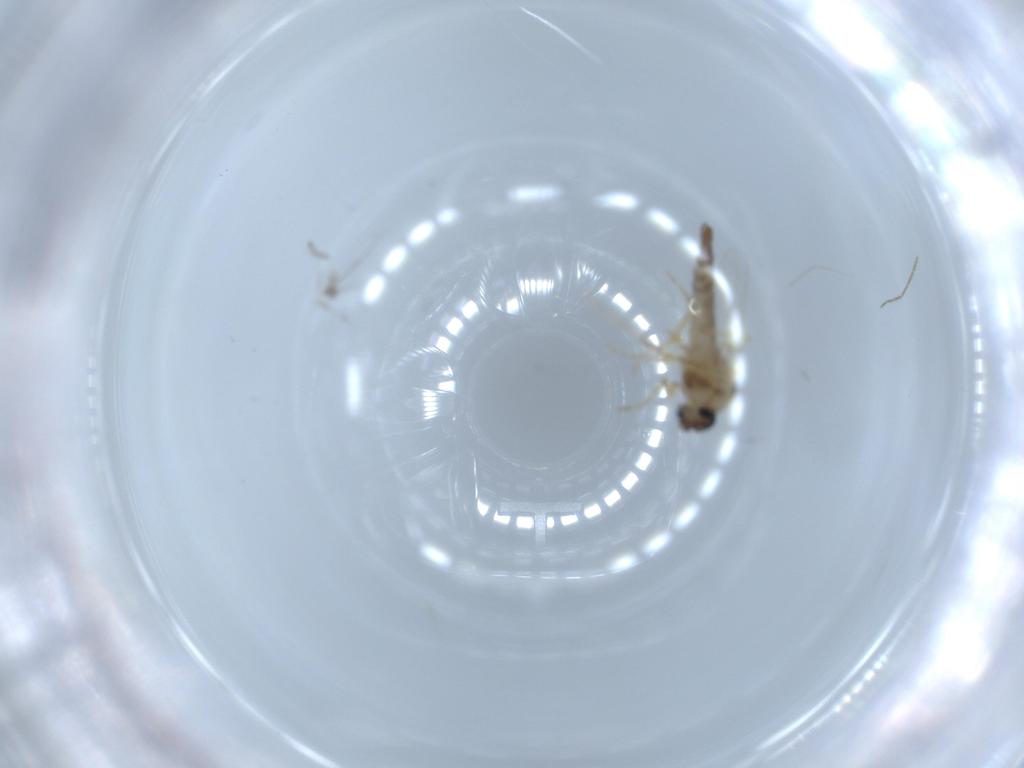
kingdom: Animalia
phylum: Arthropoda
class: Insecta
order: Diptera
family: Ceratopogonidae
